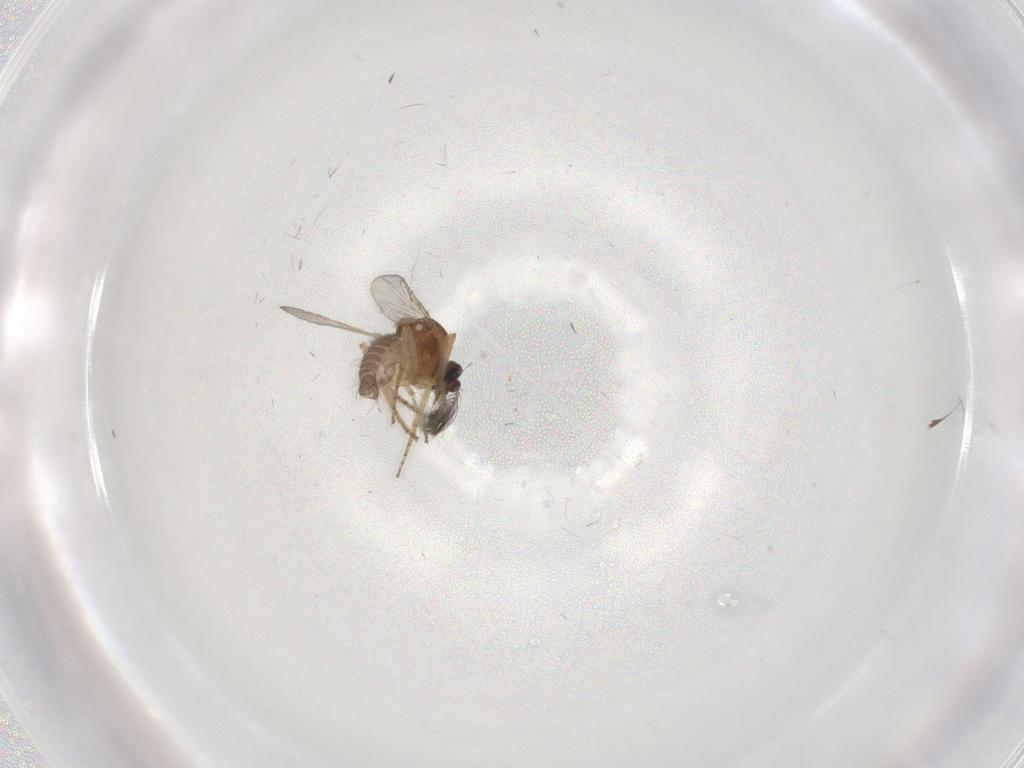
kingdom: Animalia
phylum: Arthropoda
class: Insecta
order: Diptera
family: Ceratopogonidae
